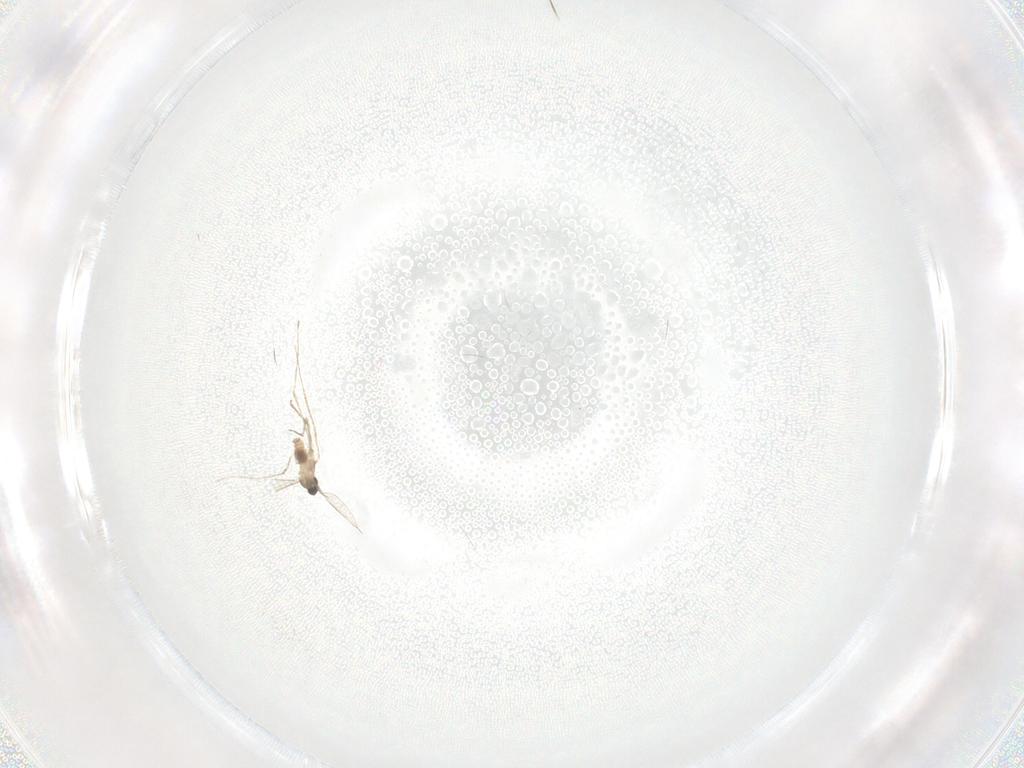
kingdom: Animalia
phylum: Arthropoda
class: Insecta
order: Diptera
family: Cecidomyiidae
